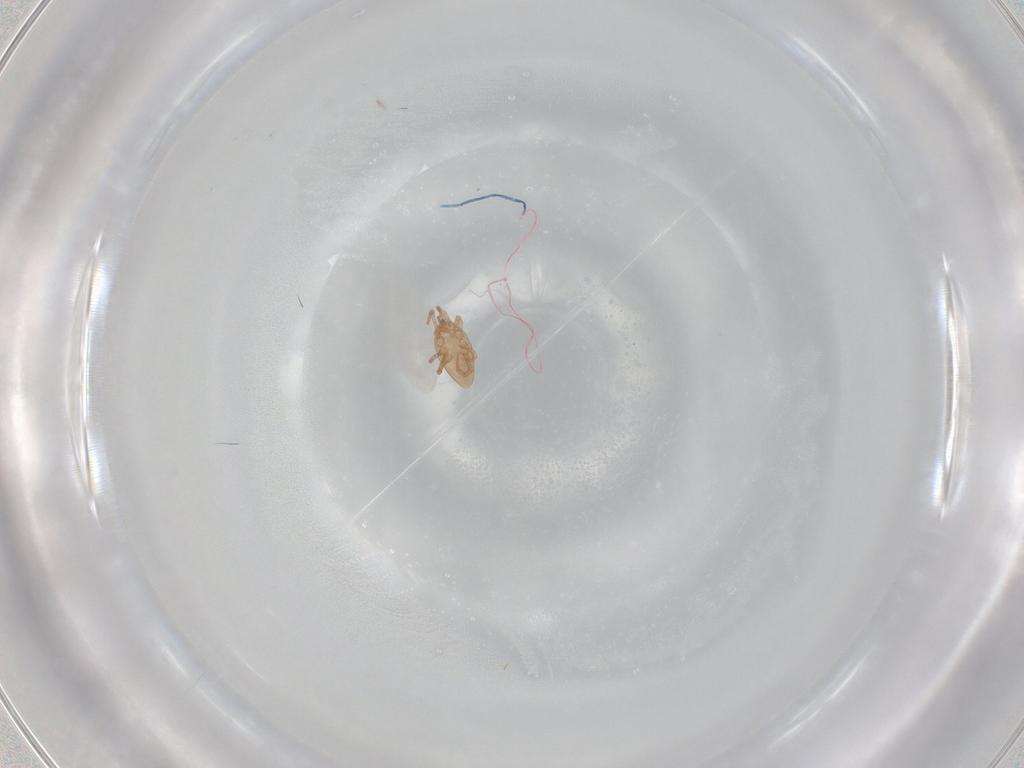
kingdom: Animalia
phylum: Arthropoda
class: Arachnida
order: Mesostigmata
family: Laelapidae
